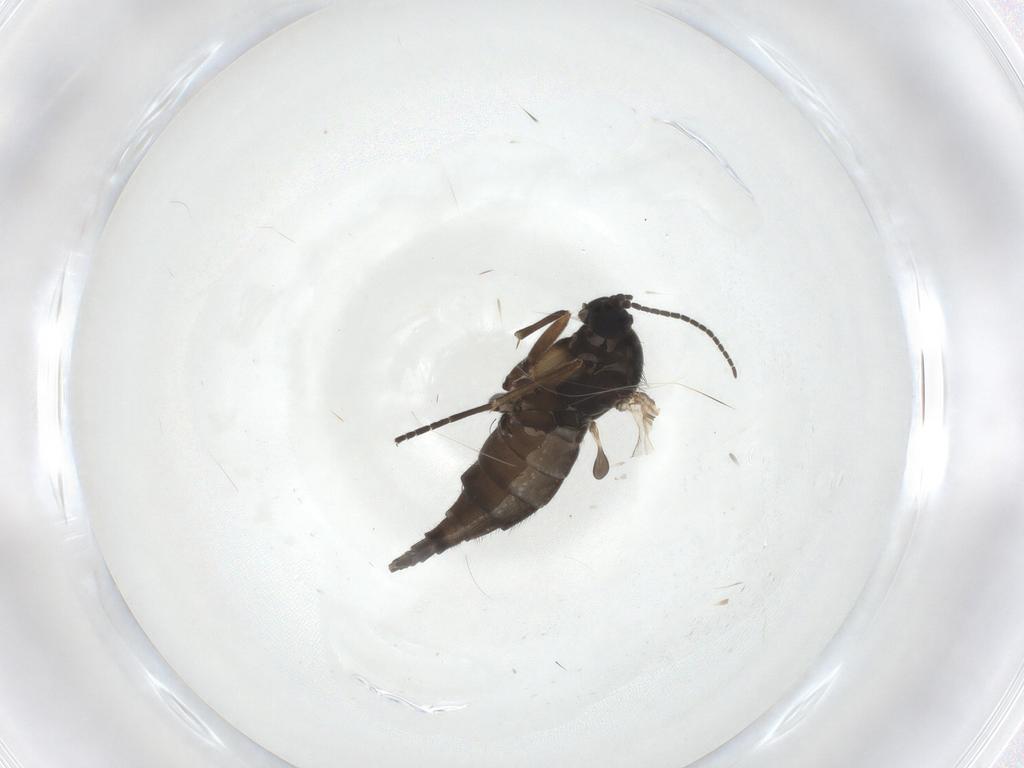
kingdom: Animalia
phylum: Arthropoda
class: Insecta
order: Diptera
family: Sciaridae
